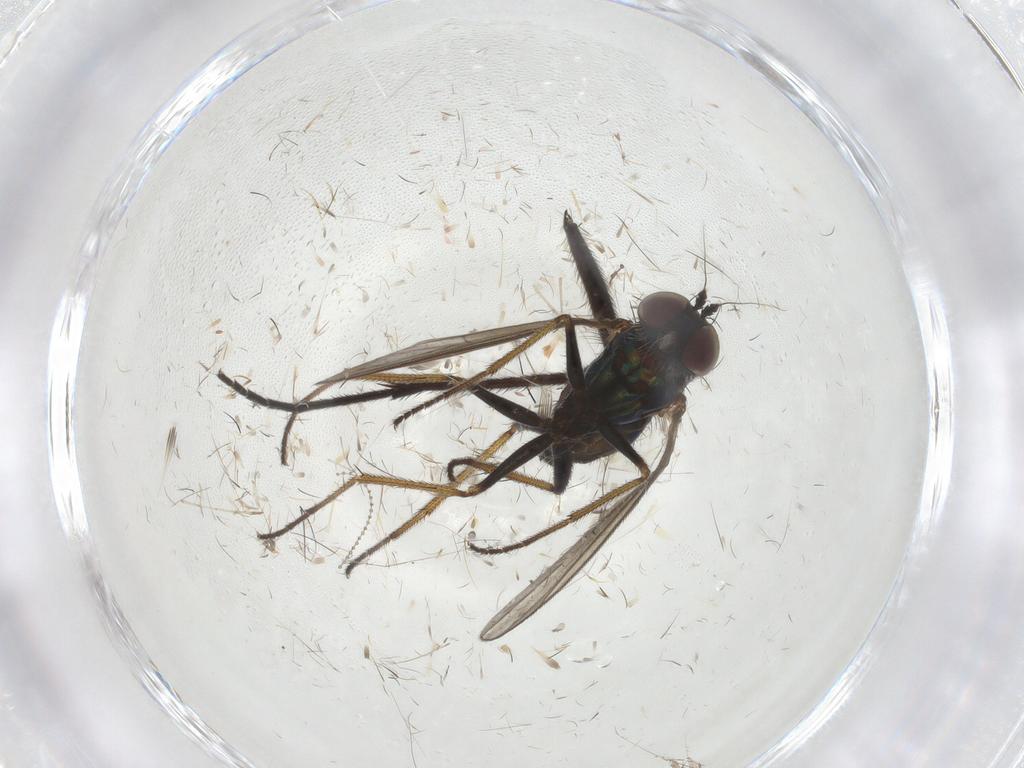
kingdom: Animalia
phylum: Arthropoda
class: Insecta
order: Diptera
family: Dolichopodidae
